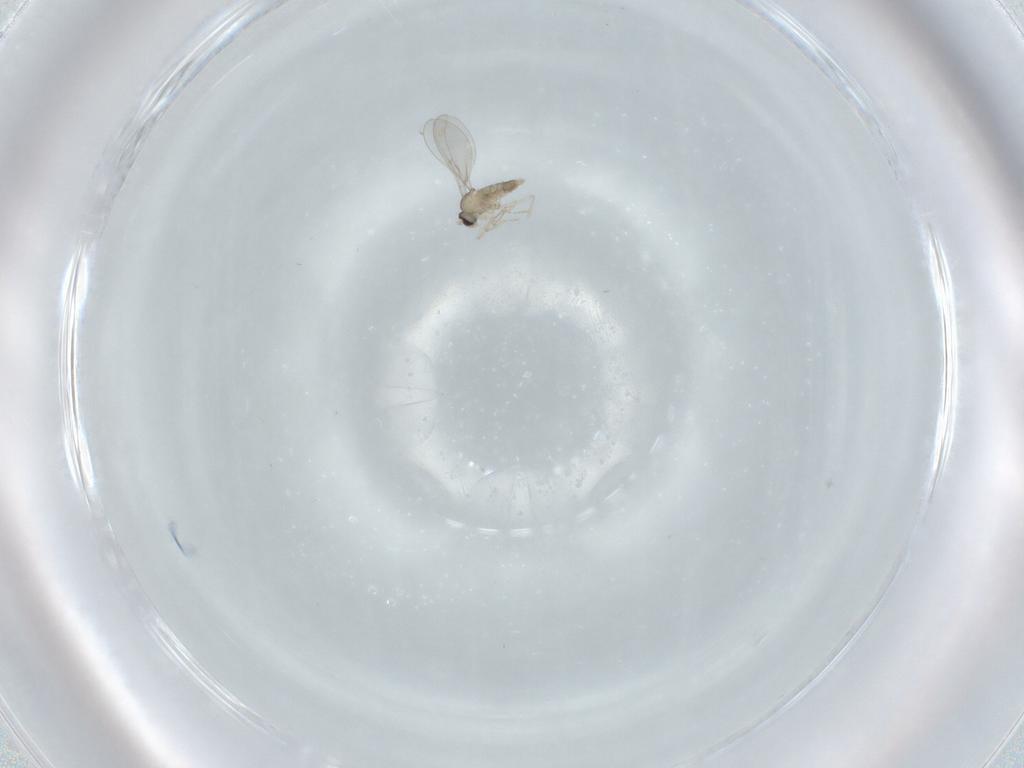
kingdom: Animalia
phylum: Arthropoda
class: Insecta
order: Diptera
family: Cecidomyiidae
